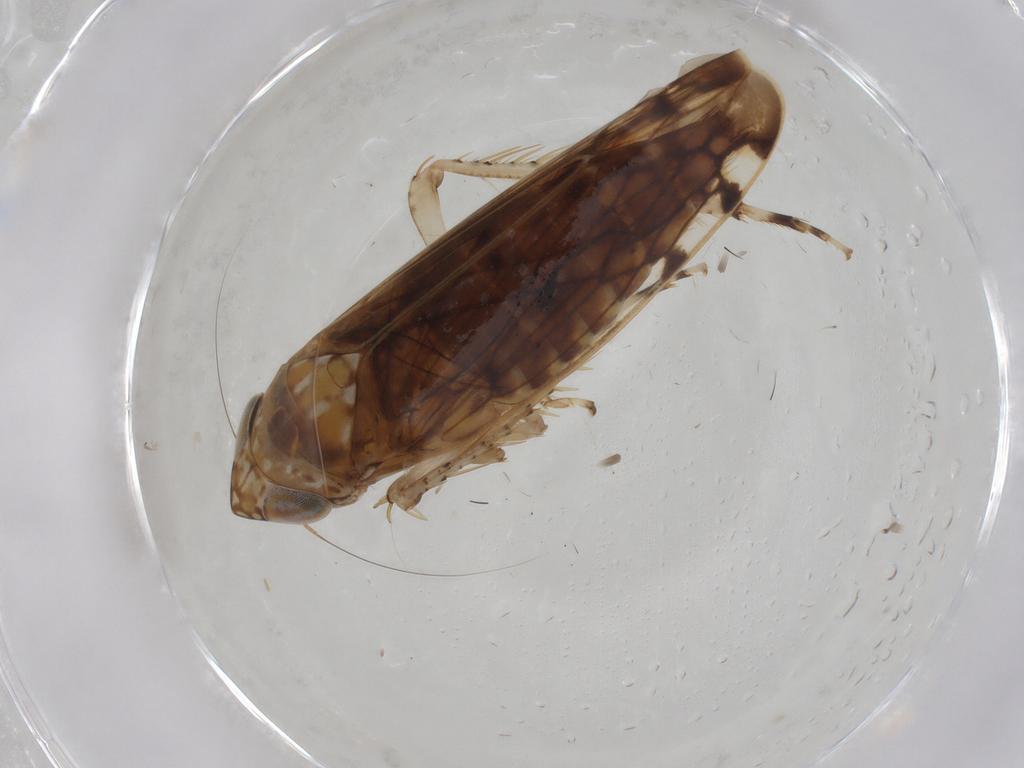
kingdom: Animalia
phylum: Arthropoda
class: Insecta
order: Hemiptera
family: Cicadellidae
